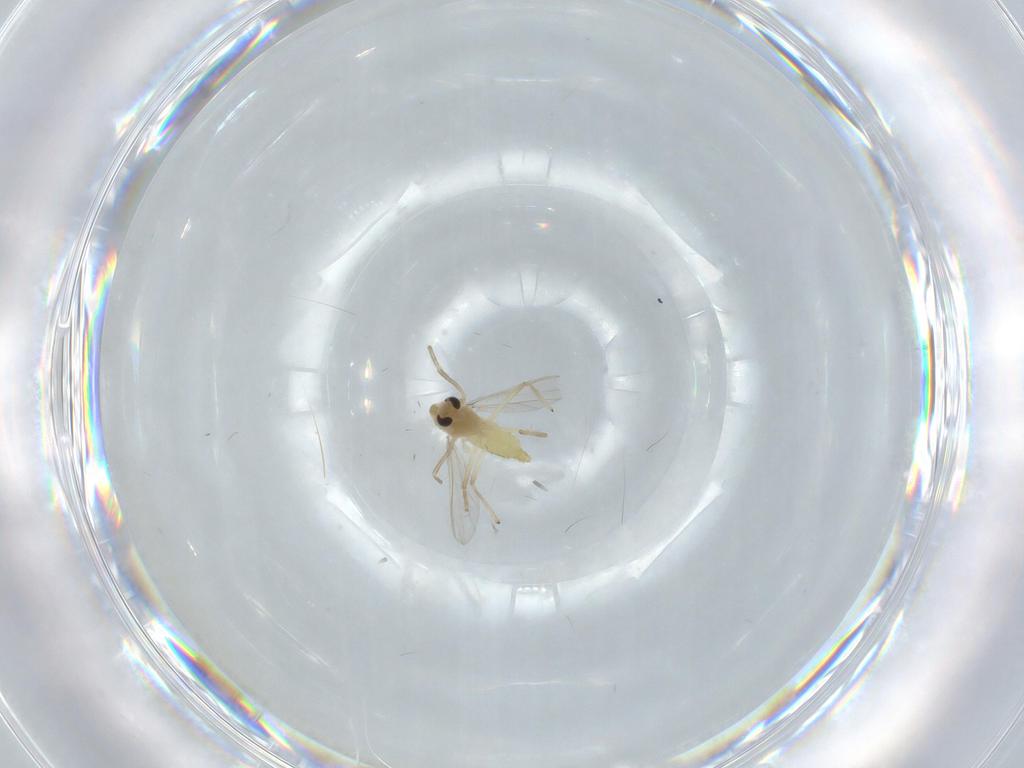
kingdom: Animalia
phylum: Arthropoda
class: Insecta
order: Diptera
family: Chironomidae
